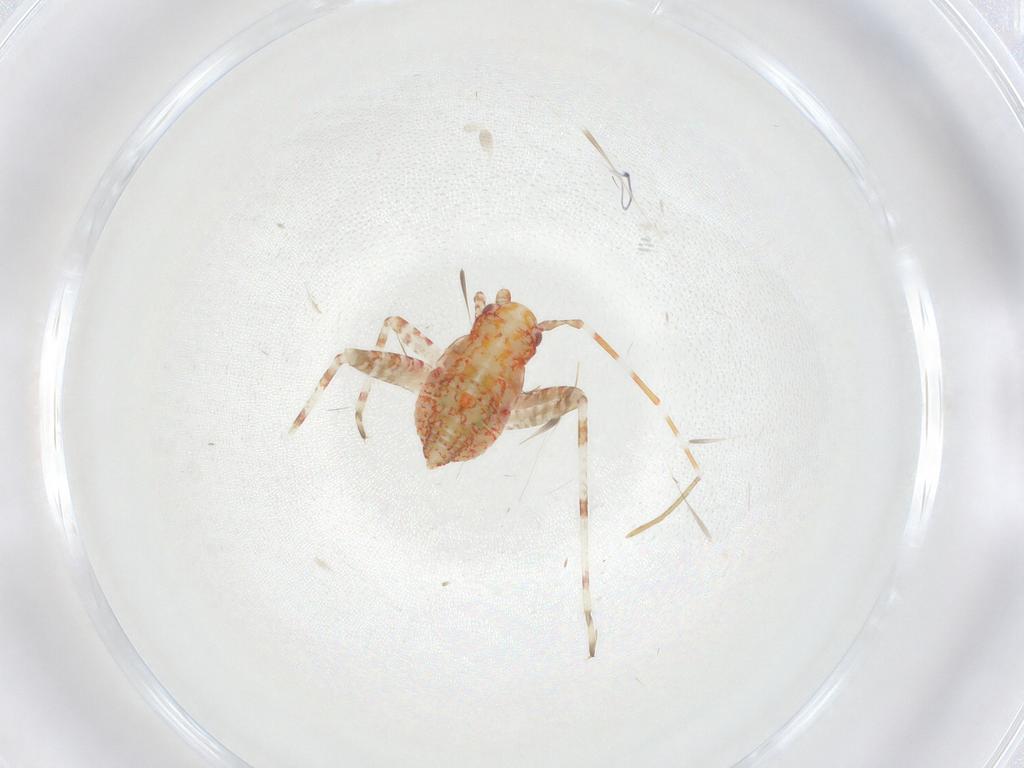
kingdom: Animalia
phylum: Arthropoda
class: Insecta
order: Hemiptera
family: Miridae
